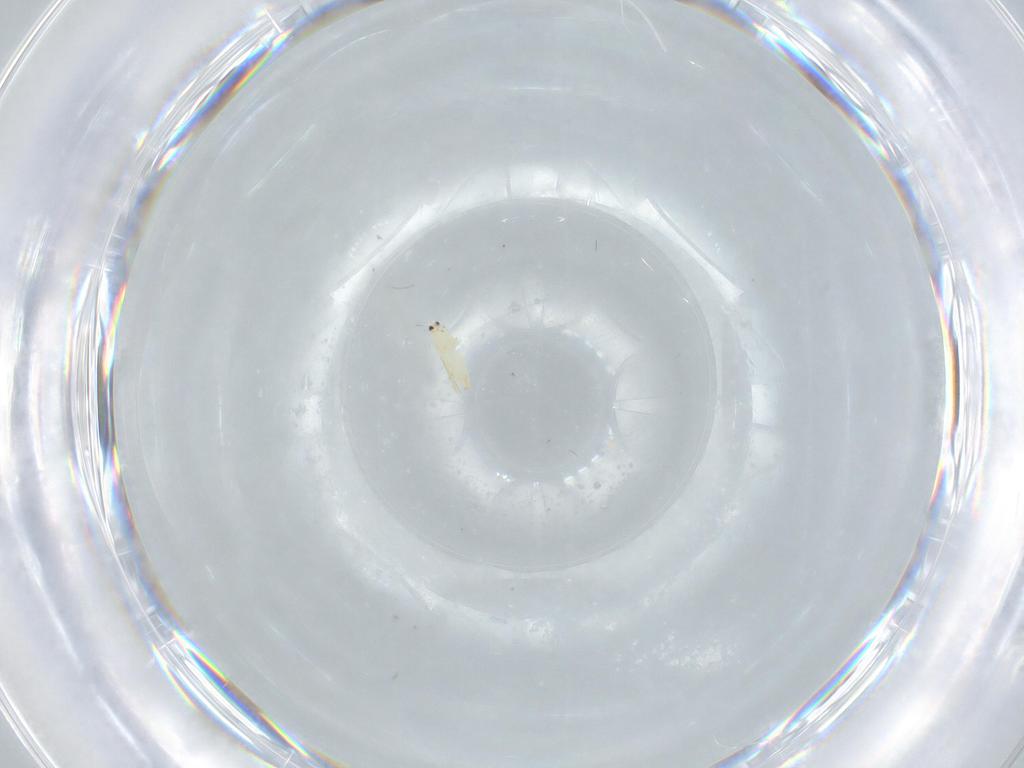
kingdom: Animalia
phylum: Arthropoda
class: Insecta
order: Thysanoptera
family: Thripidae
